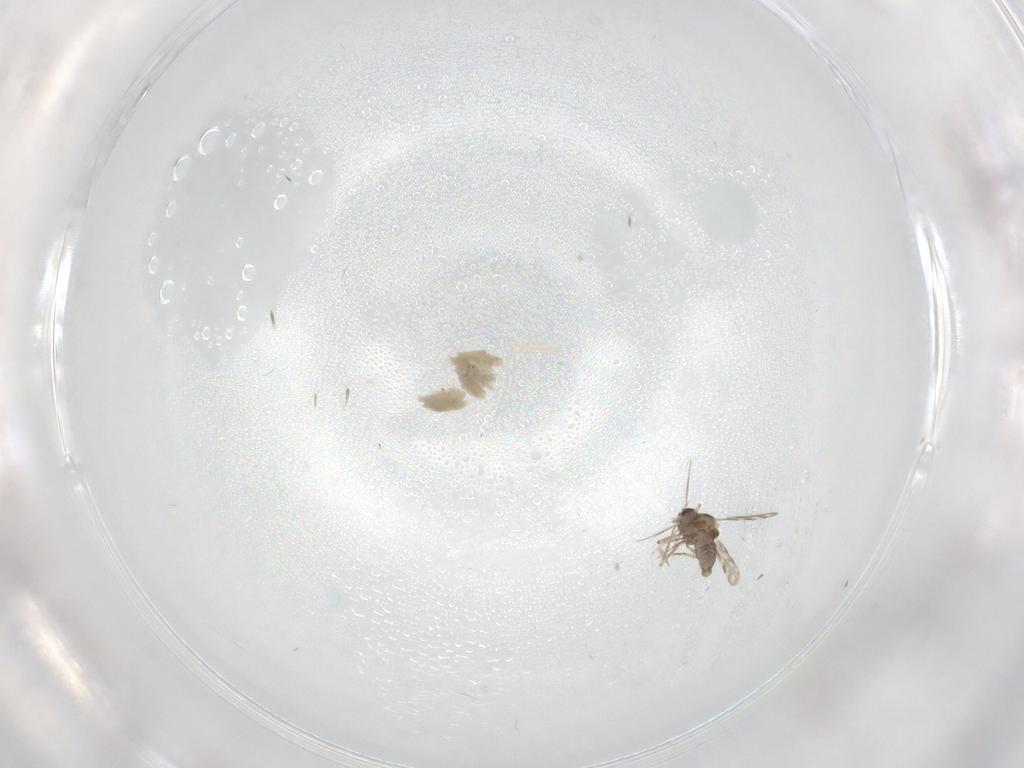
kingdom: Animalia
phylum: Arthropoda
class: Insecta
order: Diptera
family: Ceratopogonidae
